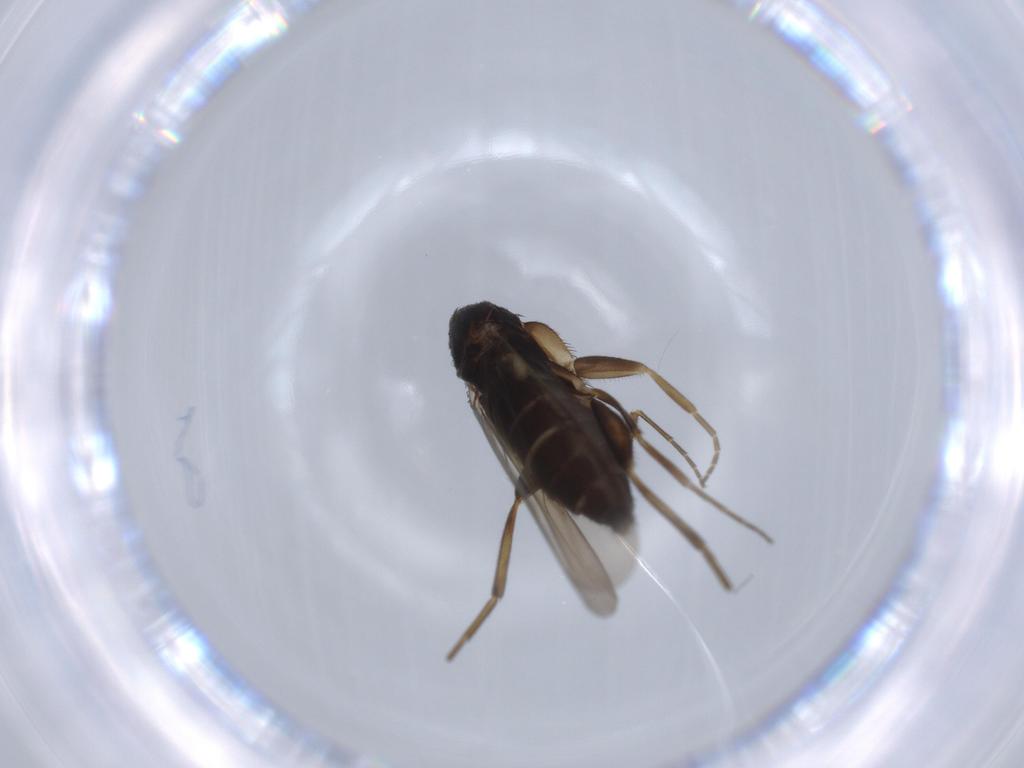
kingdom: Animalia
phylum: Arthropoda
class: Insecta
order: Diptera
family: Phoridae
